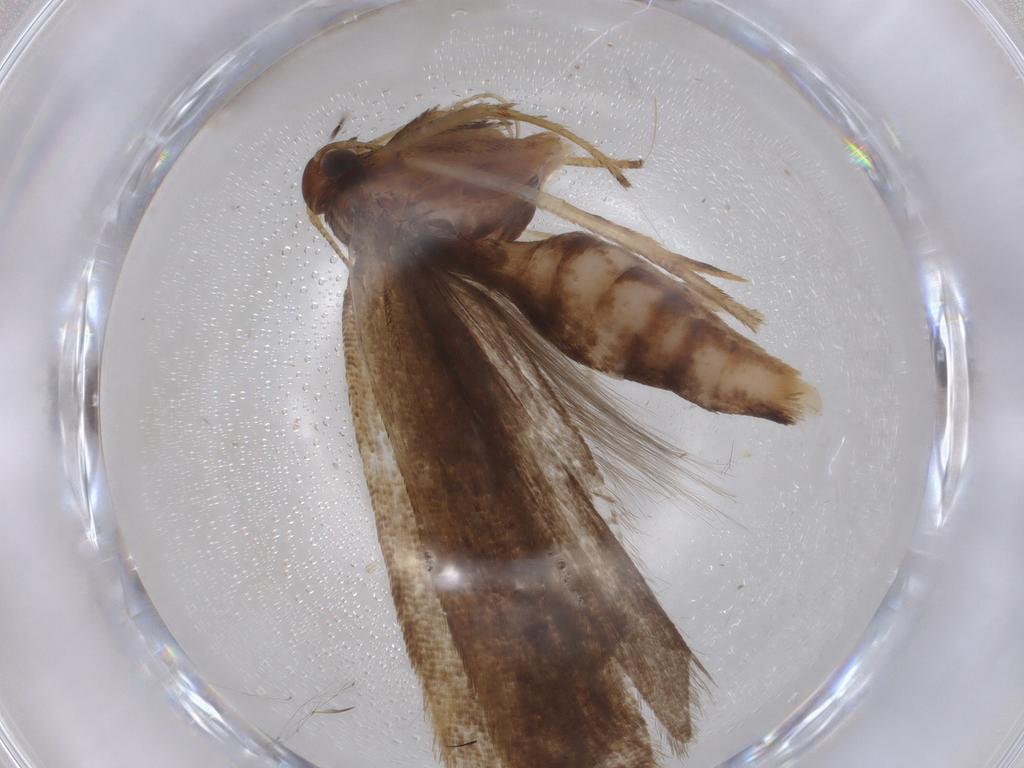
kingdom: Animalia
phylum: Arthropoda
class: Insecta
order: Lepidoptera
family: Gelechiidae
